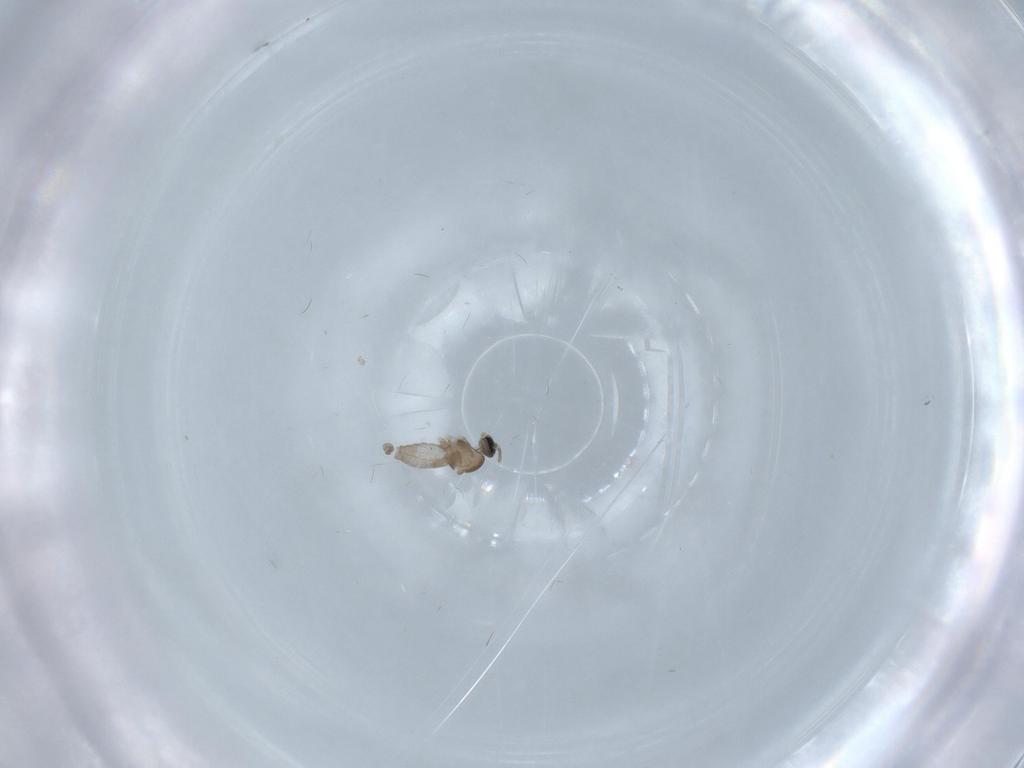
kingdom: Animalia
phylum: Arthropoda
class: Insecta
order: Diptera
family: Cecidomyiidae
